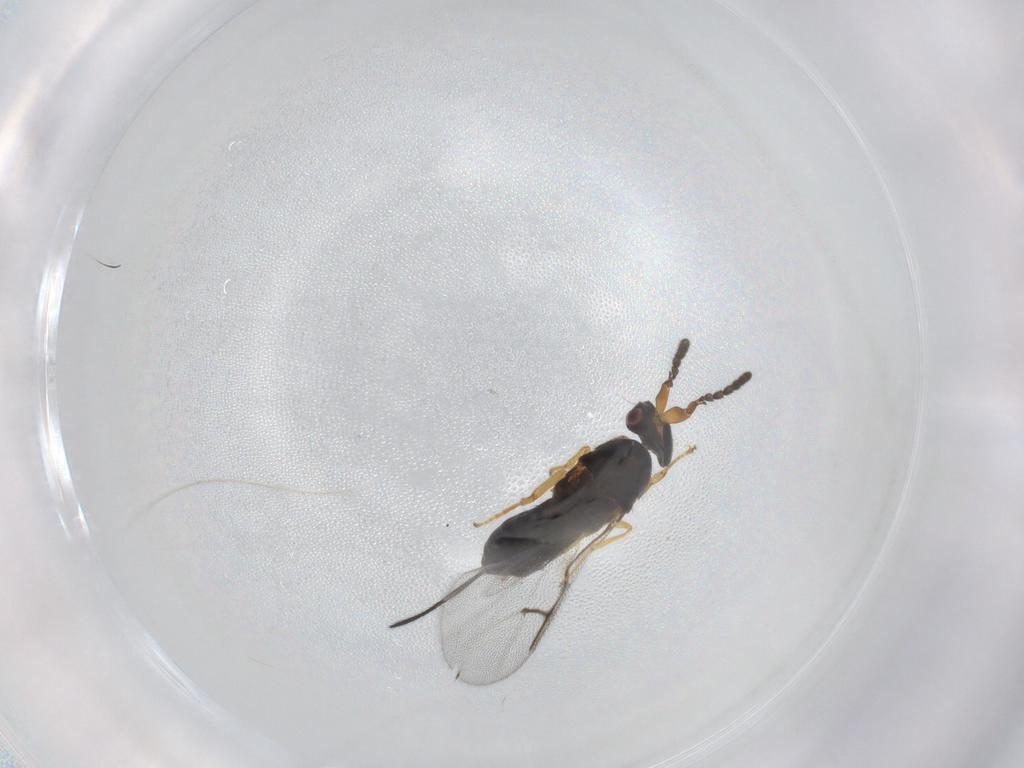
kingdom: Animalia
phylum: Arthropoda
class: Insecta
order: Hymenoptera
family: Agaonidae
